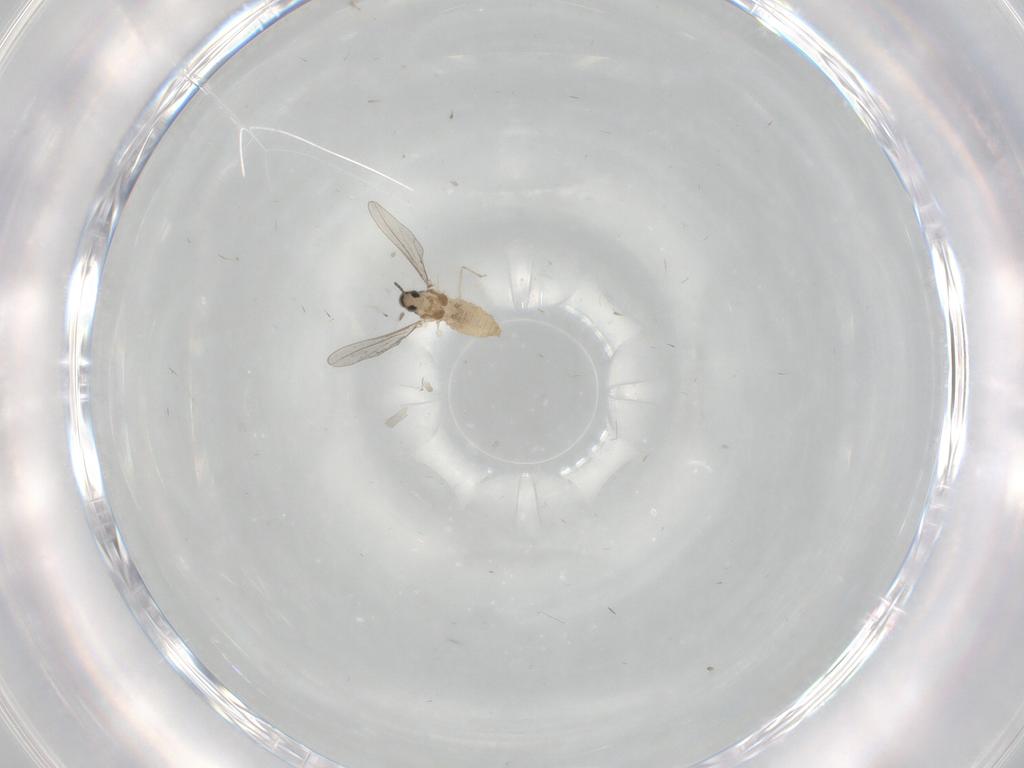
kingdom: Animalia
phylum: Arthropoda
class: Insecta
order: Diptera
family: Cecidomyiidae
